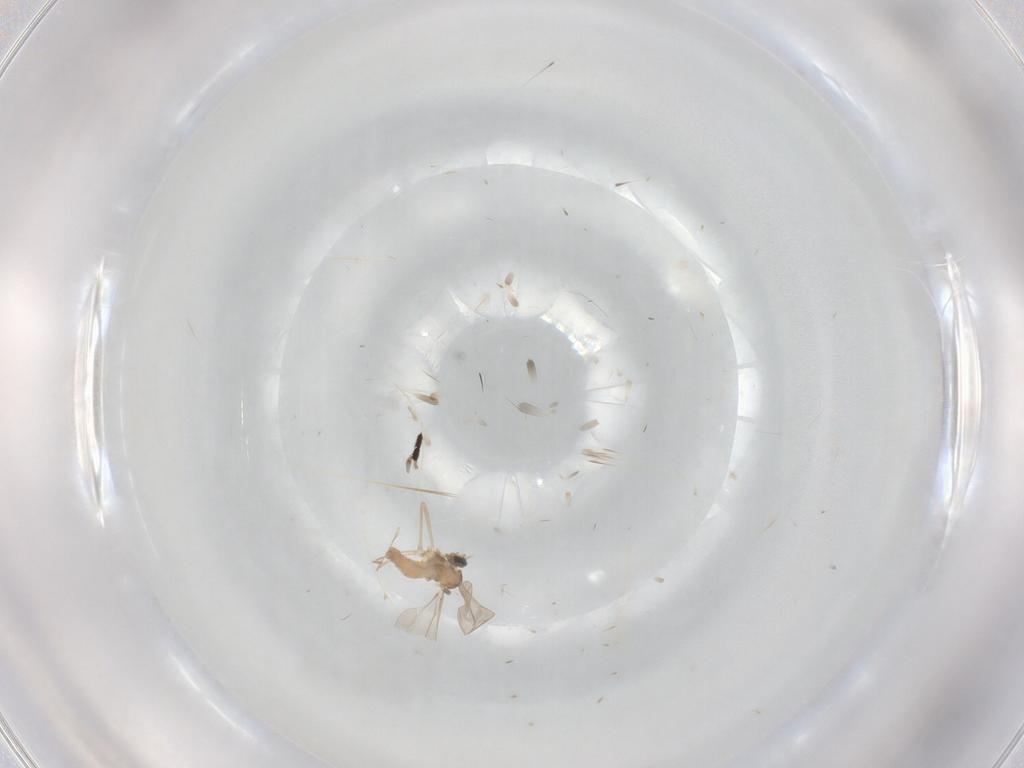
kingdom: Animalia
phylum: Arthropoda
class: Insecta
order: Diptera
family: Dolichopodidae
